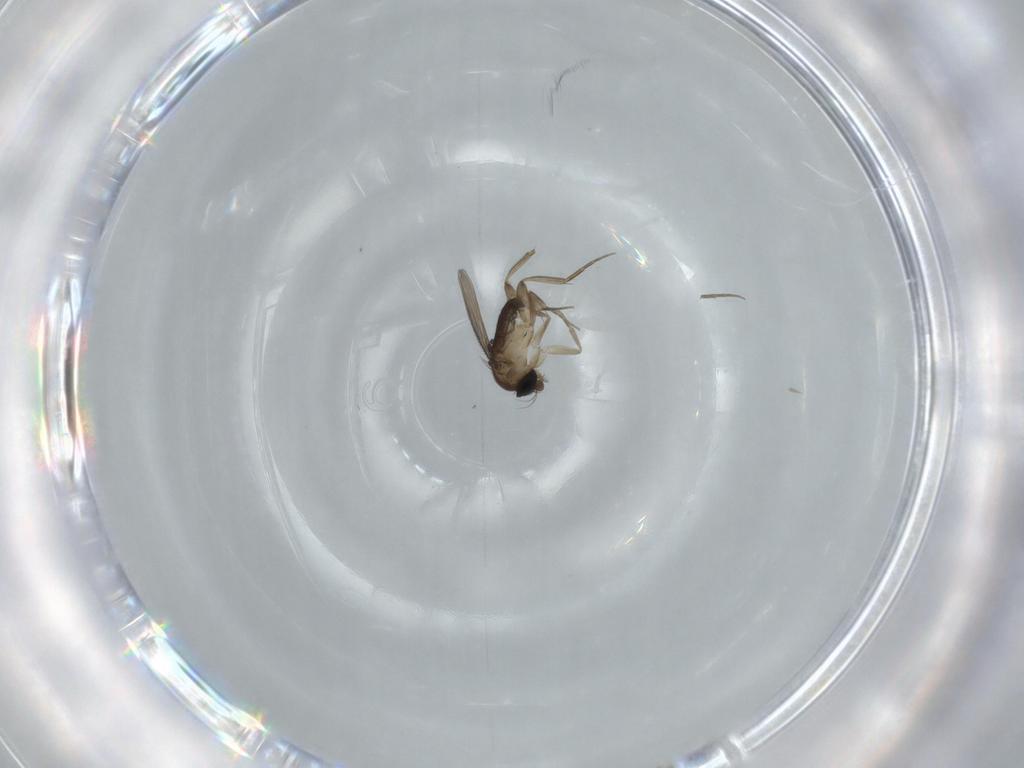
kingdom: Animalia
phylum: Arthropoda
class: Insecta
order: Diptera
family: Phoridae
